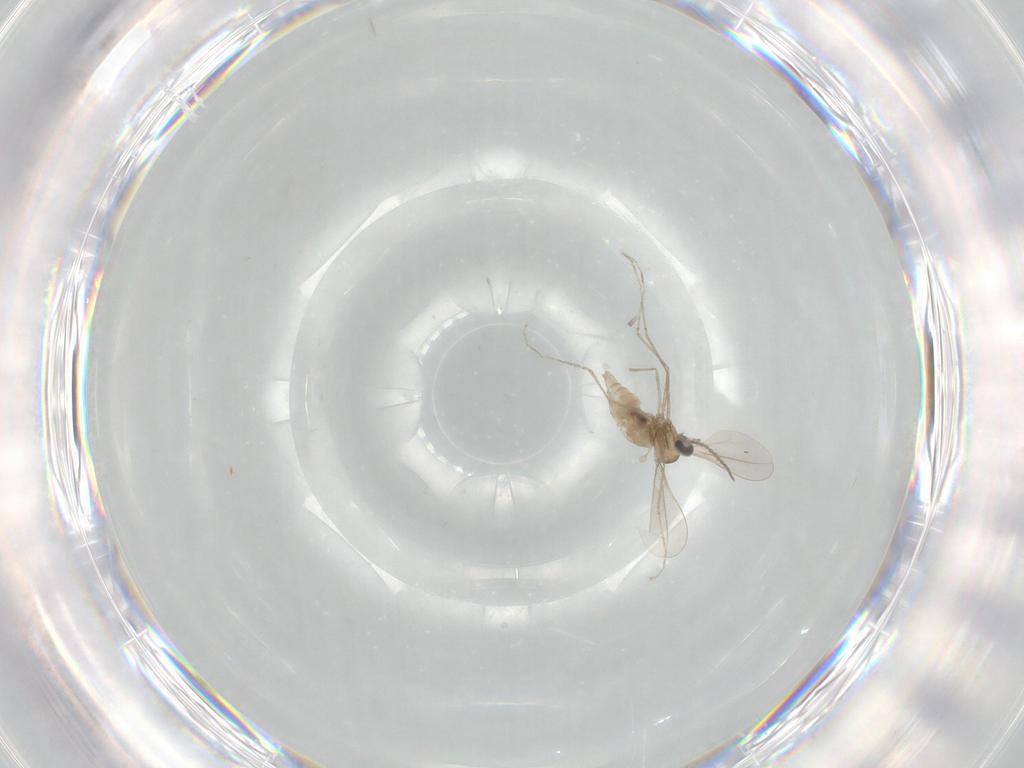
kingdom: Animalia
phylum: Arthropoda
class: Insecta
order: Diptera
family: Cecidomyiidae
